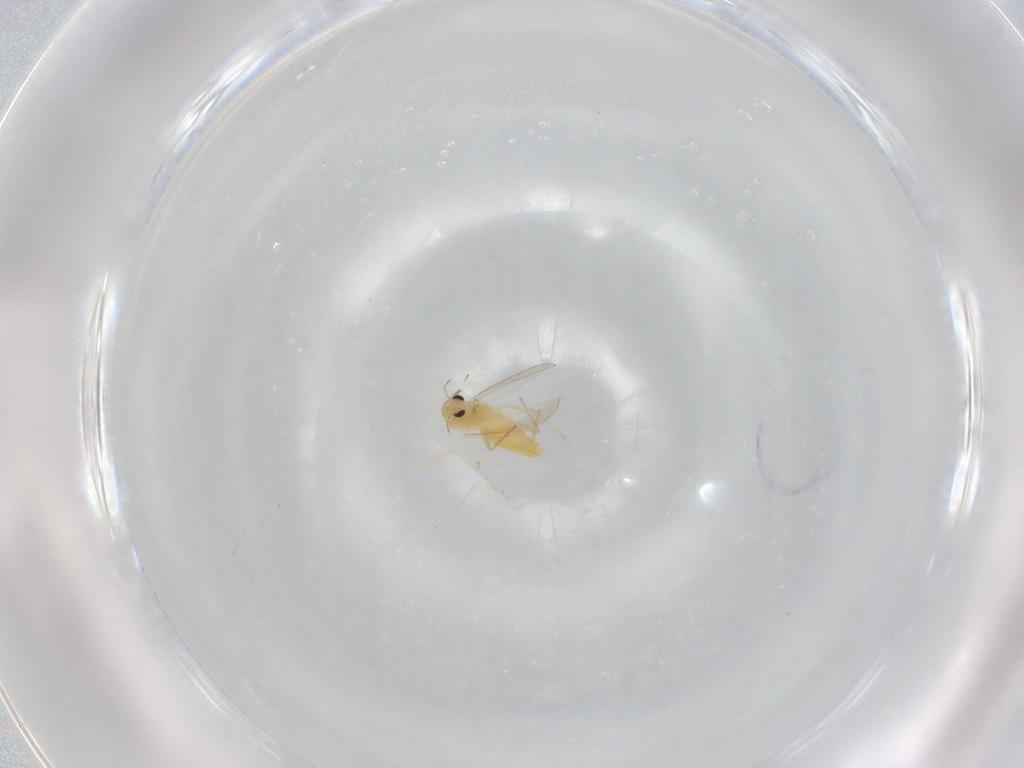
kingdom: Animalia
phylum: Arthropoda
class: Insecta
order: Diptera
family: Chironomidae
